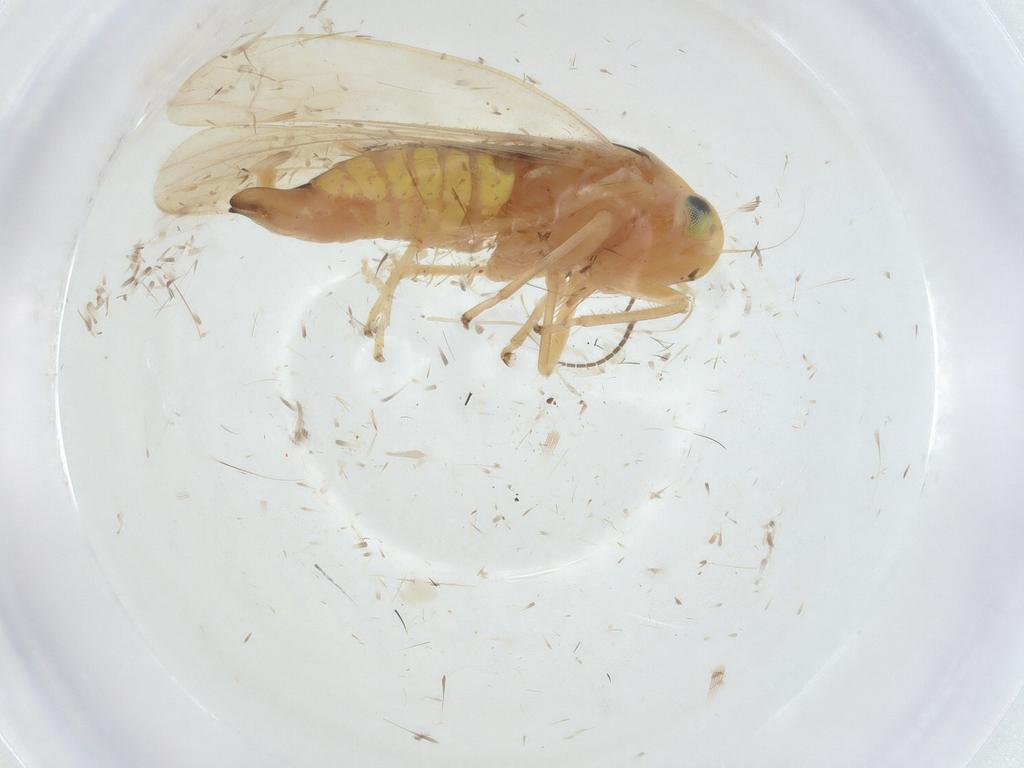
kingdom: Animalia
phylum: Arthropoda
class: Insecta
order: Hemiptera
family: Cicadellidae
